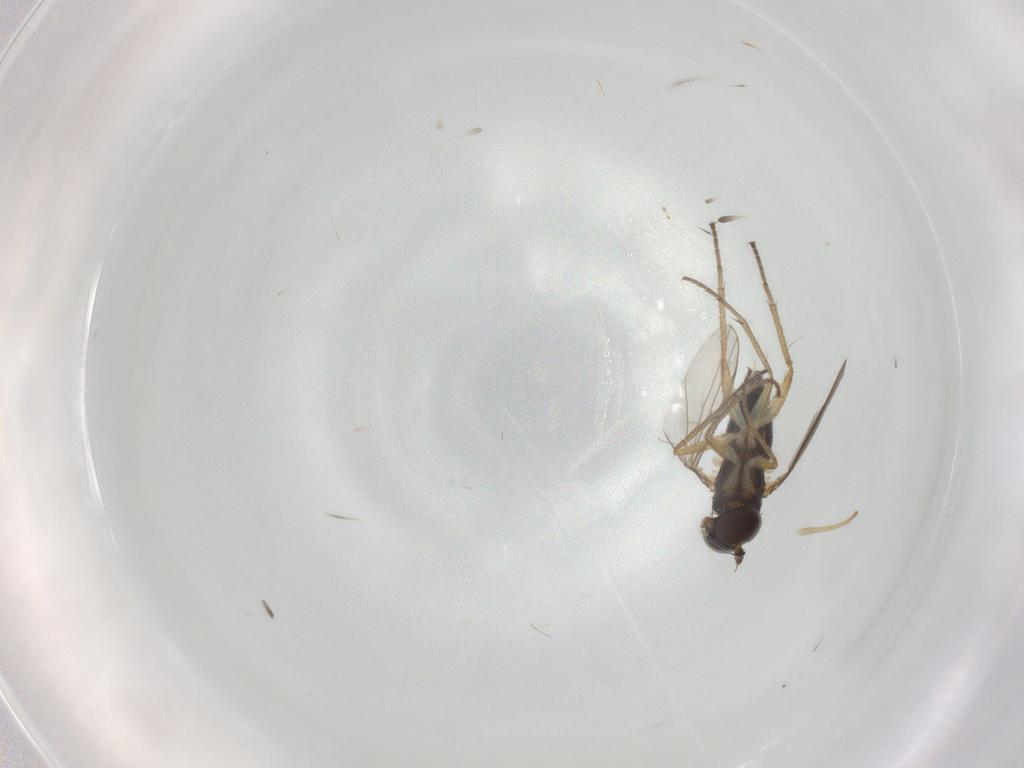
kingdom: Animalia
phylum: Arthropoda
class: Insecta
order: Diptera
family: Dolichopodidae
